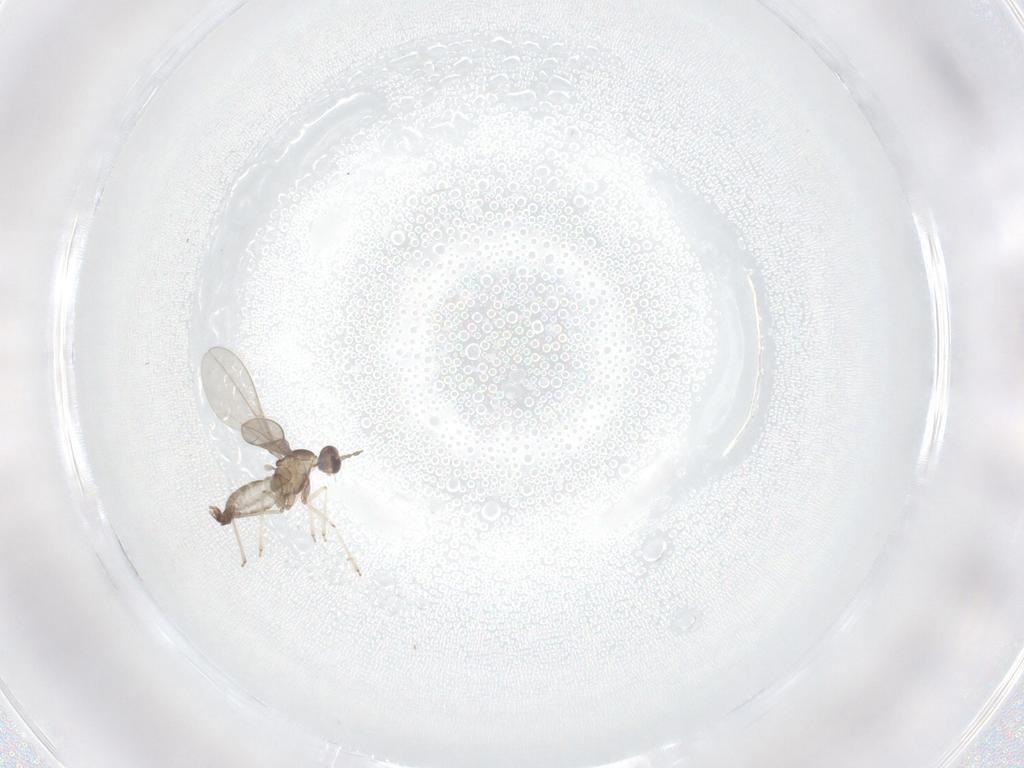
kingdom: Animalia
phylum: Arthropoda
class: Insecta
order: Diptera
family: Cecidomyiidae
